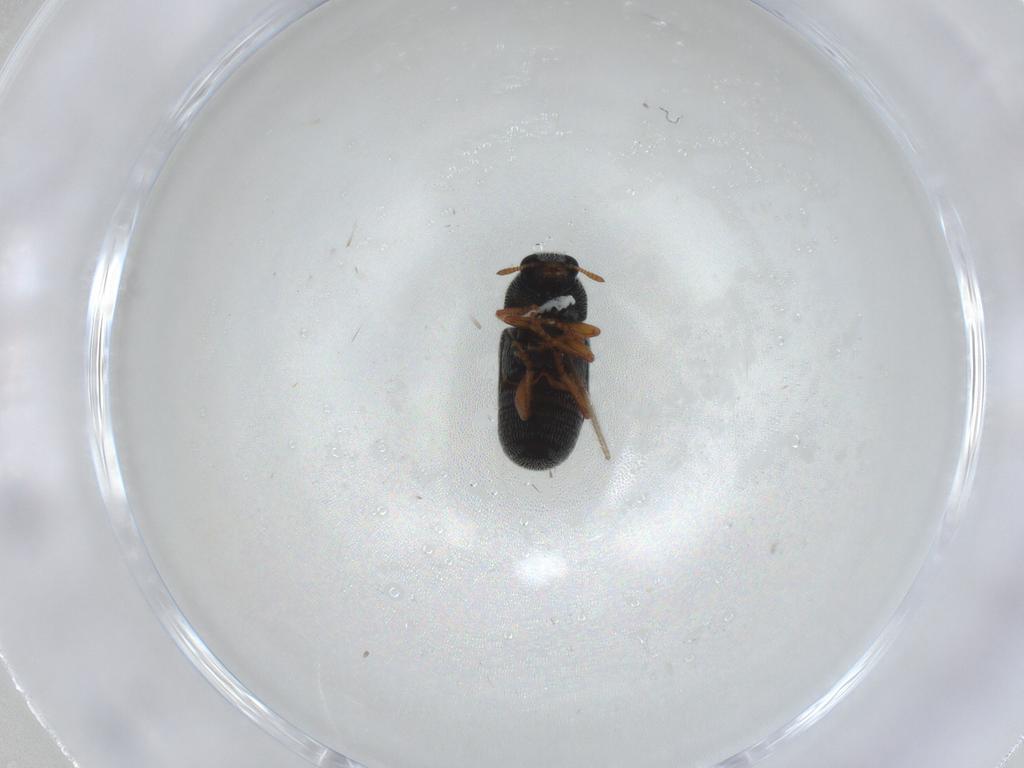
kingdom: Animalia
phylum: Arthropoda
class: Insecta
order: Coleoptera
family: Anthribidae
